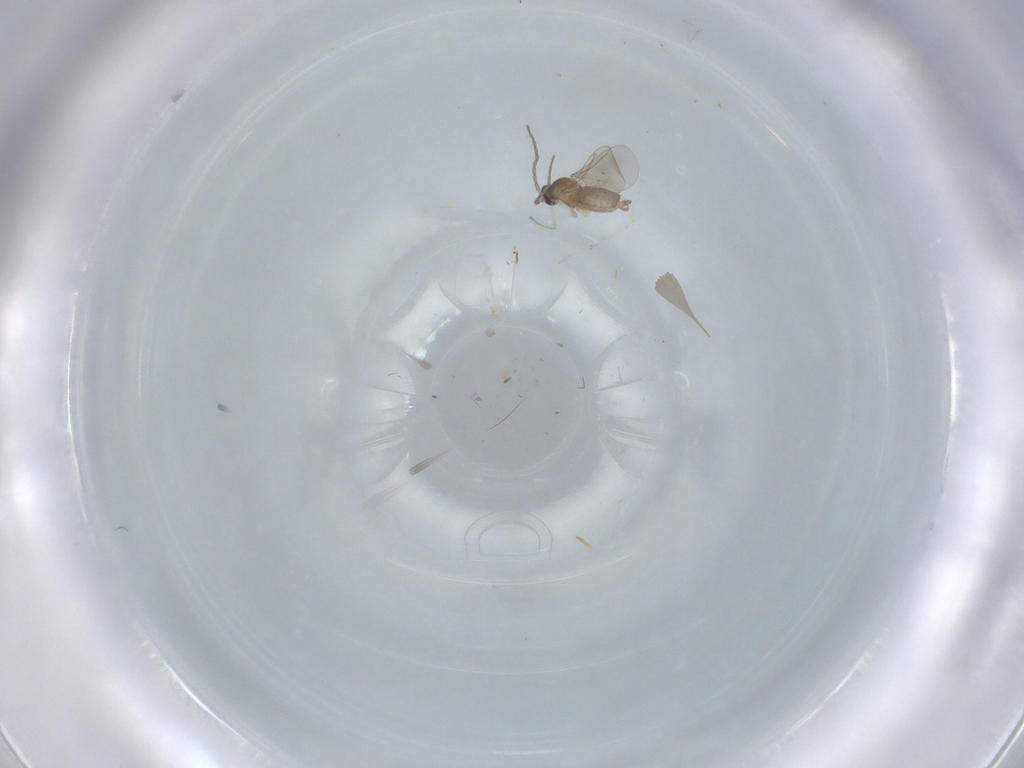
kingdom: Animalia
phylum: Arthropoda
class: Insecta
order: Diptera
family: Cecidomyiidae
